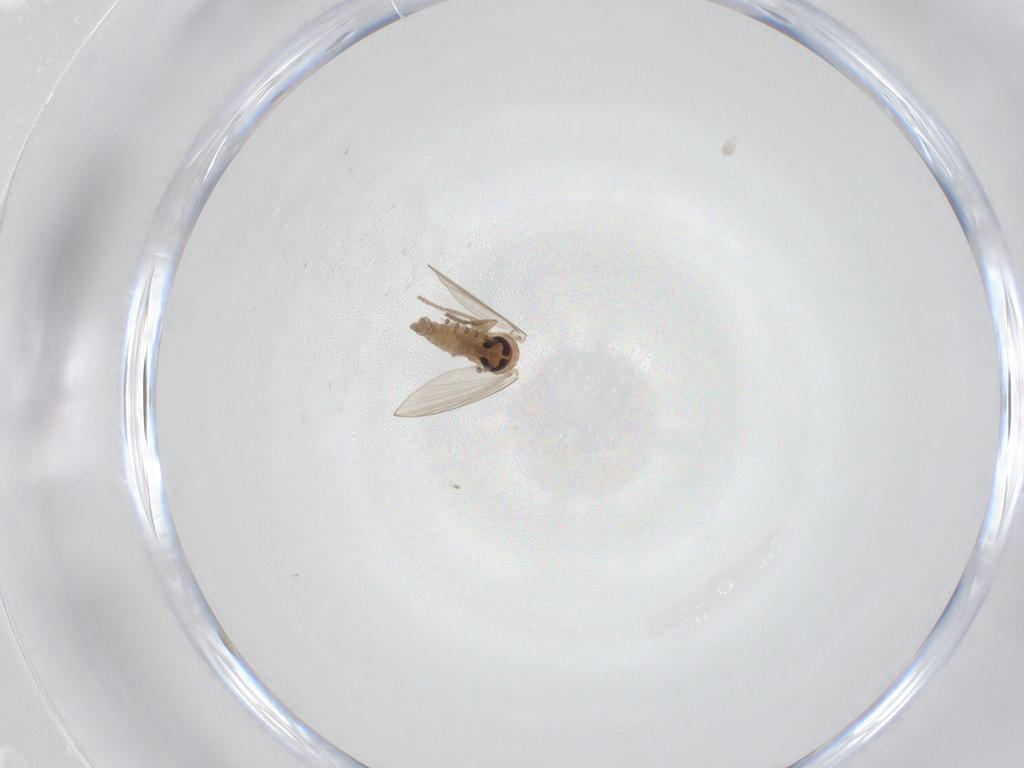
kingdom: Animalia
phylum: Arthropoda
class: Insecta
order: Diptera
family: Psychodidae
